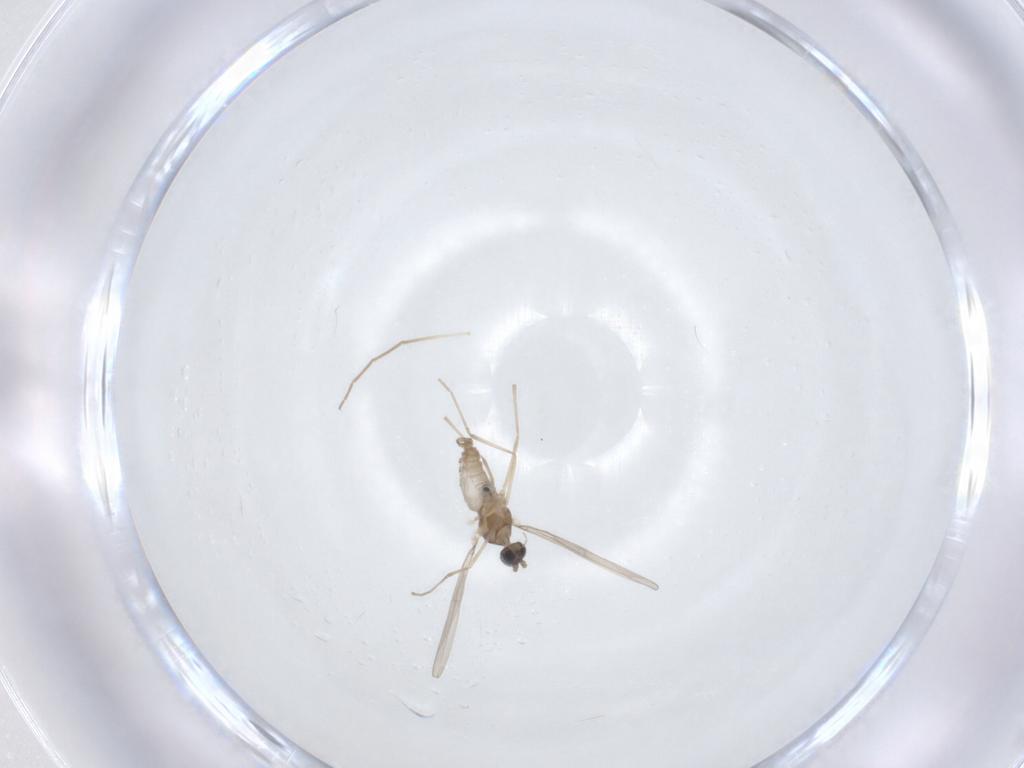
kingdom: Animalia
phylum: Arthropoda
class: Insecta
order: Diptera
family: Cecidomyiidae
